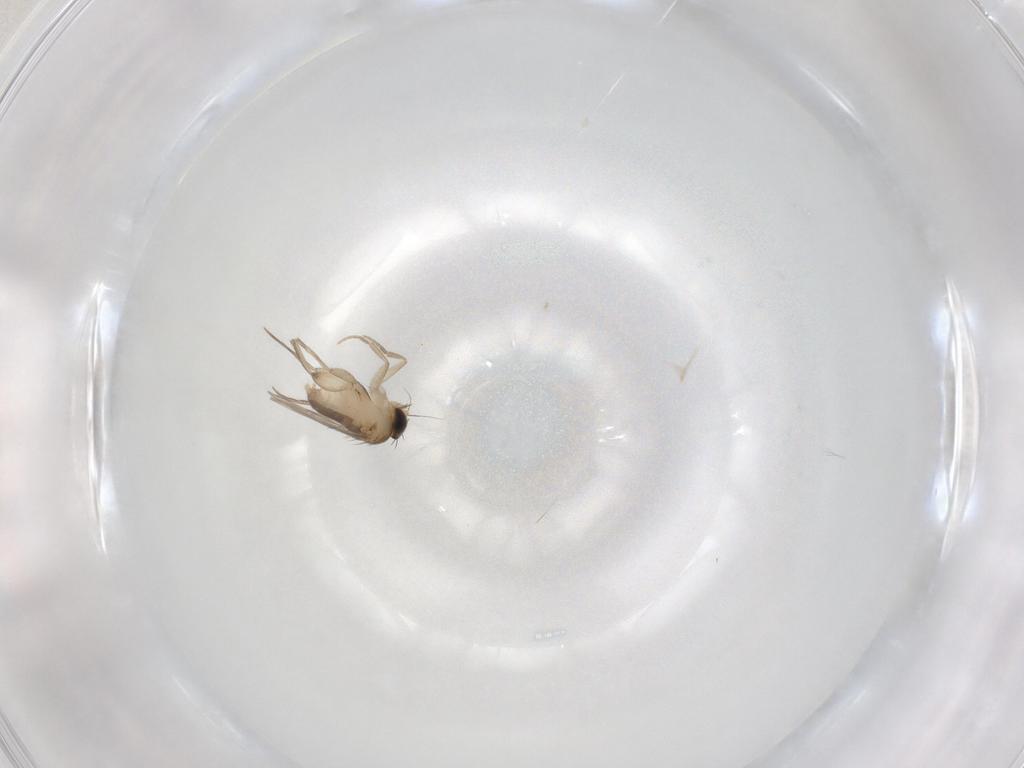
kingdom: Animalia
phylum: Arthropoda
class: Insecta
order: Diptera
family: Phoridae
